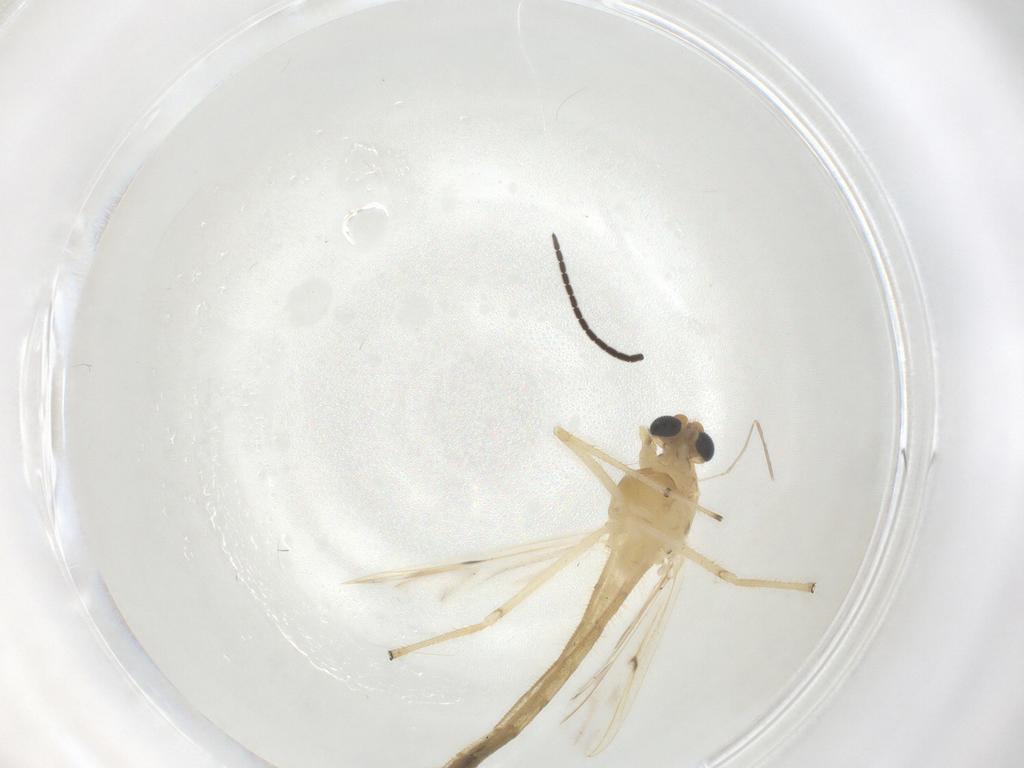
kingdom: Animalia
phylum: Arthropoda
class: Insecta
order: Diptera
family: Chironomidae
